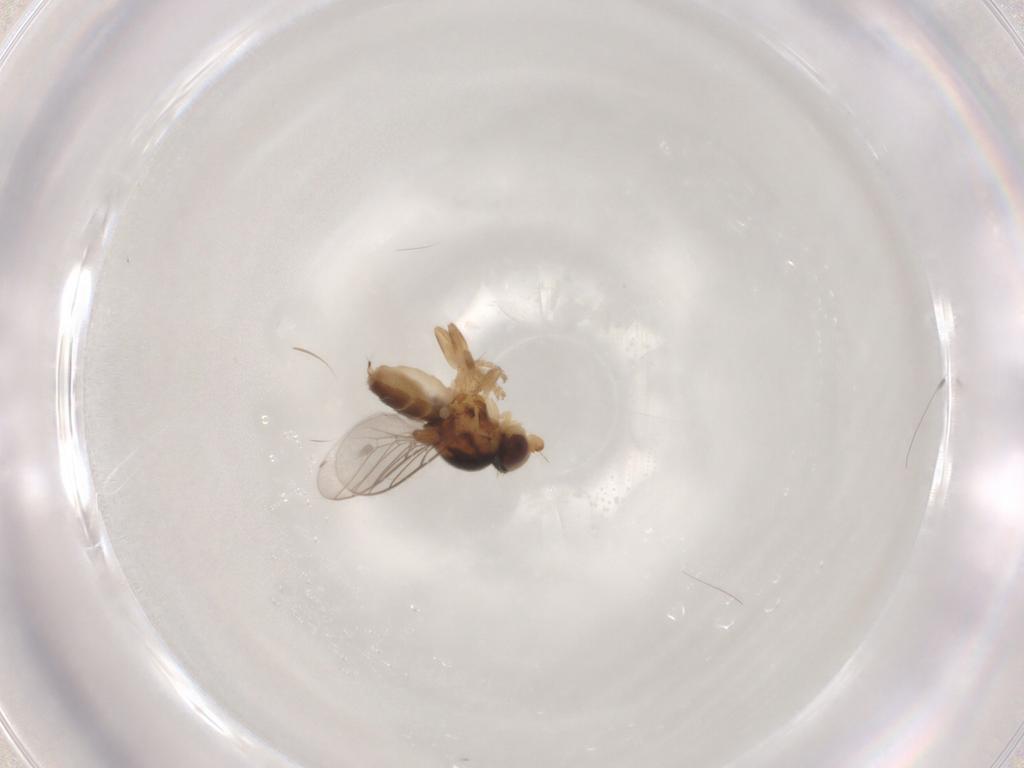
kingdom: Animalia
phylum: Arthropoda
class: Insecta
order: Diptera
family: Chloropidae
